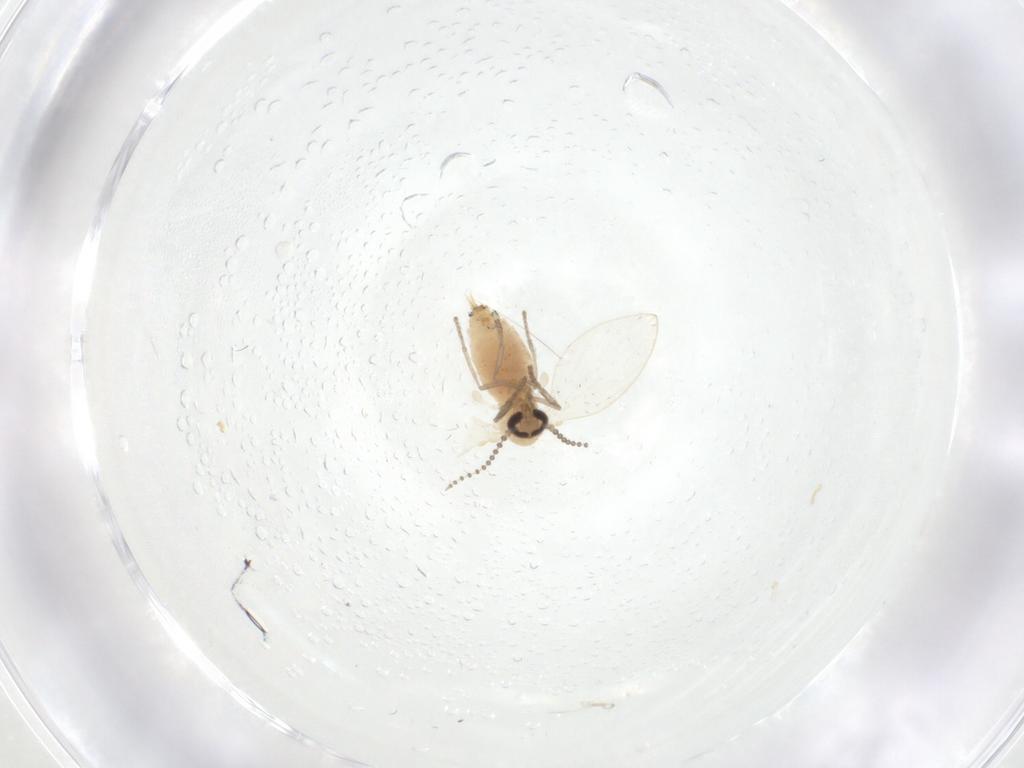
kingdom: Animalia
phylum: Arthropoda
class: Insecta
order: Diptera
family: Psychodidae
